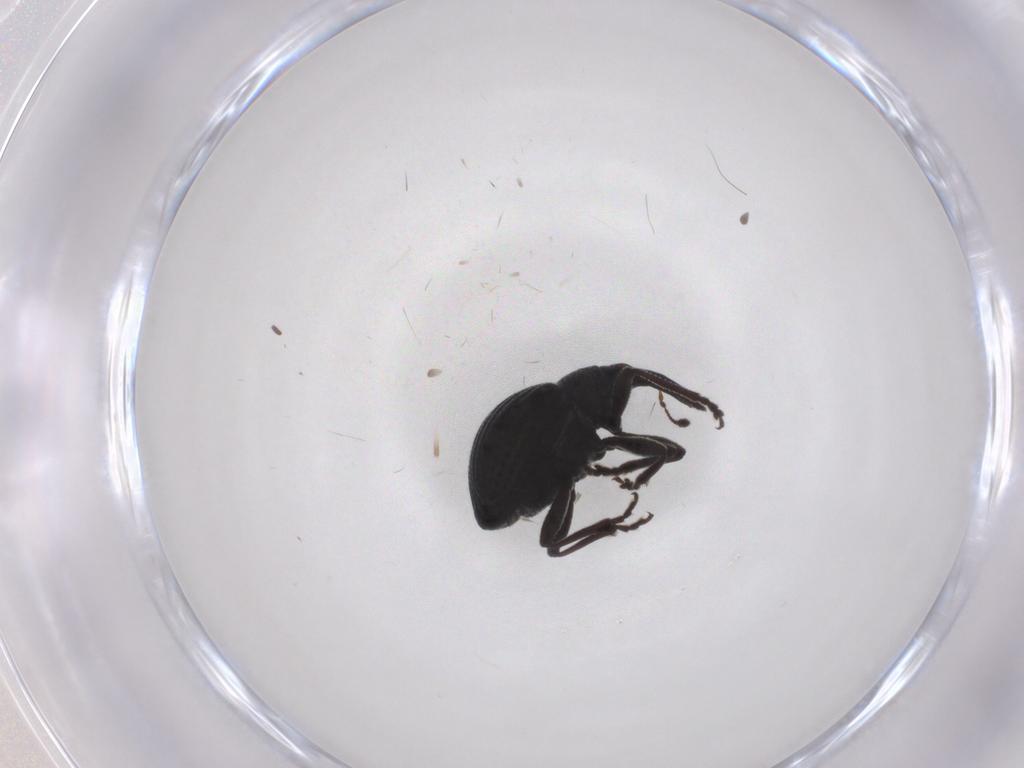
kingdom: Animalia
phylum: Arthropoda
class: Insecta
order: Coleoptera
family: Brentidae
